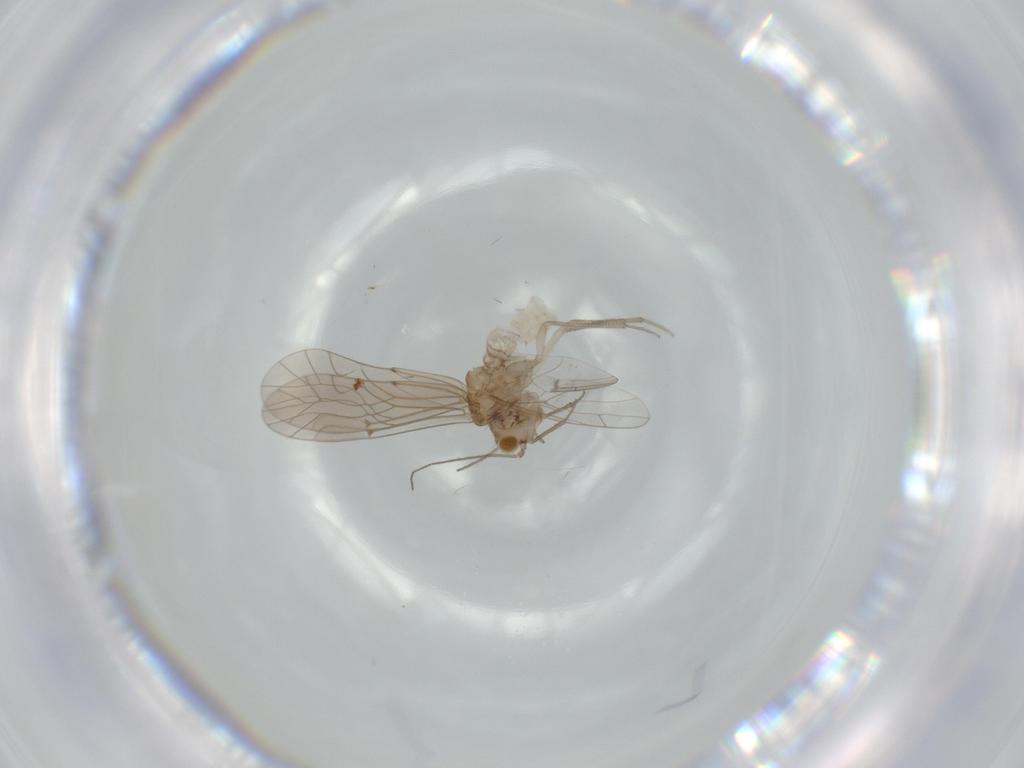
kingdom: Animalia
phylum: Arthropoda
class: Insecta
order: Psocodea
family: Lachesillidae
